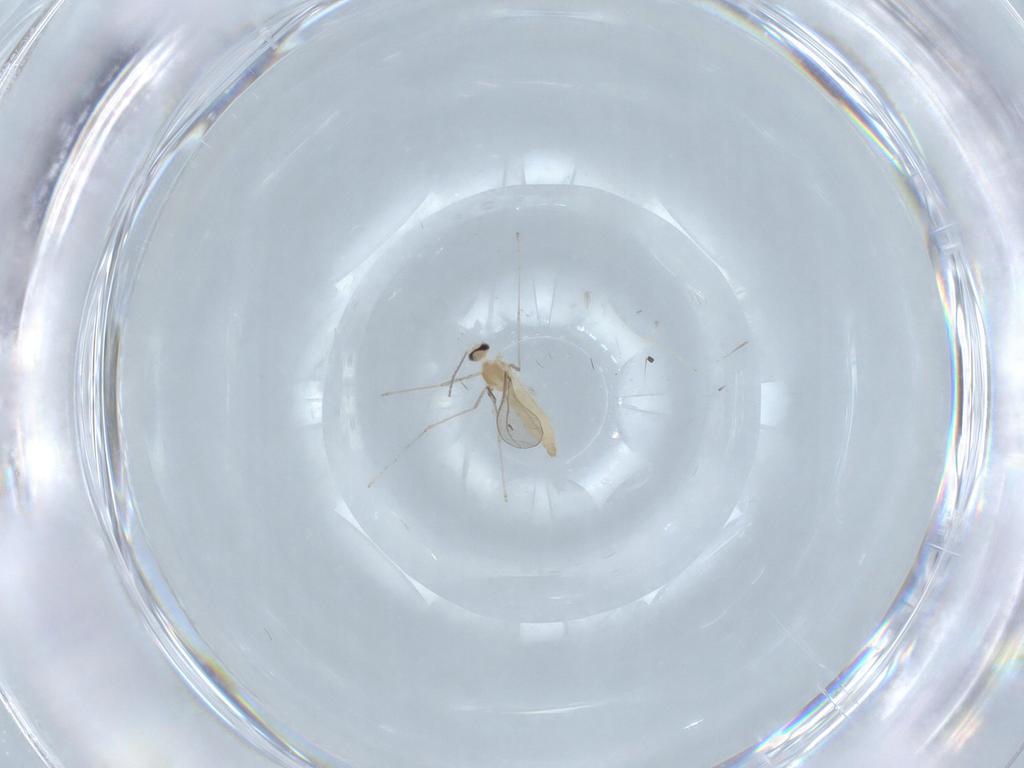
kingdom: Animalia
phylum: Arthropoda
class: Insecta
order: Diptera
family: Cecidomyiidae
